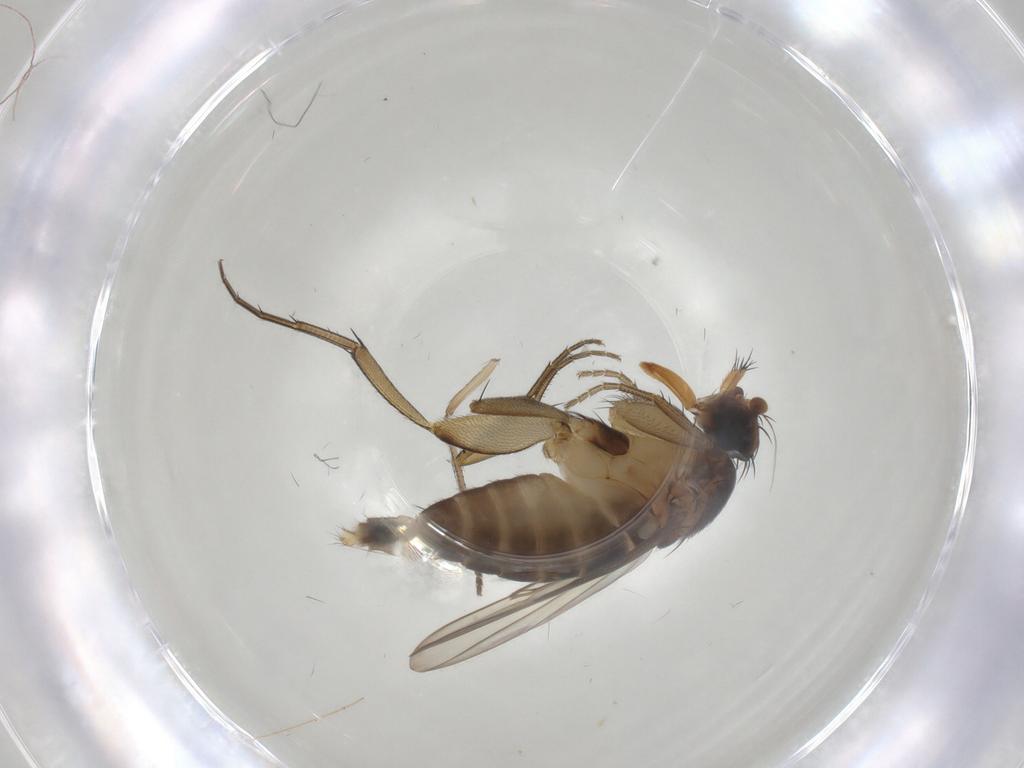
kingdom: Animalia
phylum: Arthropoda
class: Insecta
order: Diptera
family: Phoridae
